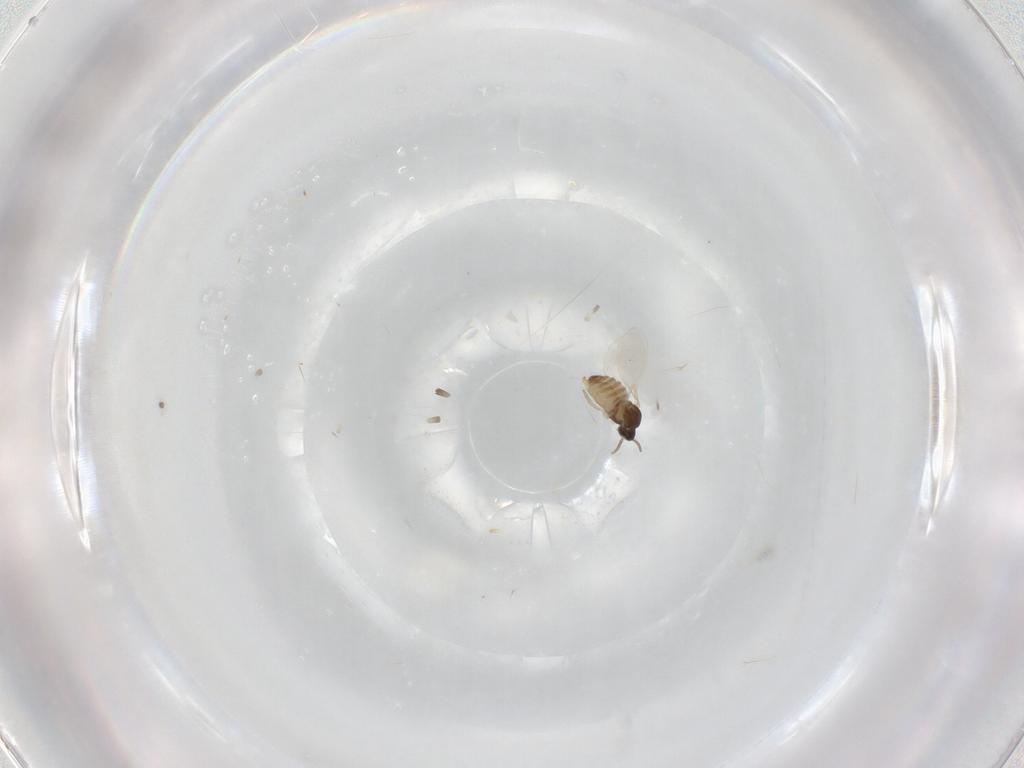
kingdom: Animalia
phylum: Arthropoda
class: Insecta
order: Diptera
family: Cecidomyiidae
